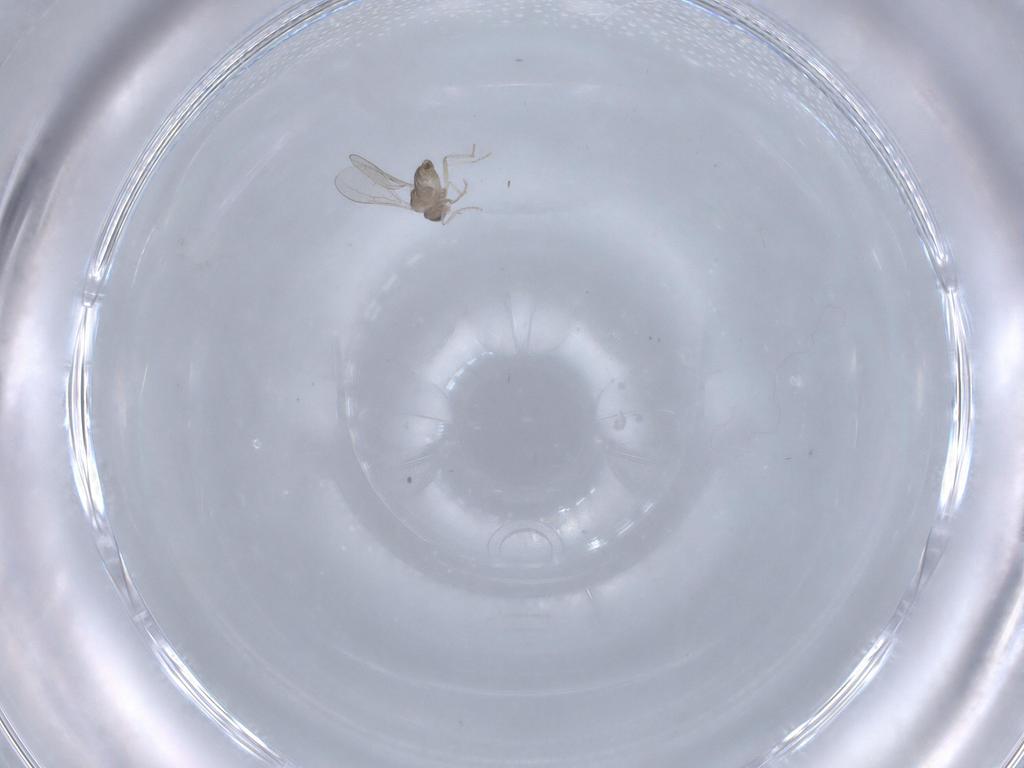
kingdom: Animalia
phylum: Arthropoda
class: Insecta
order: Diptera
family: Cecidomyiidae
